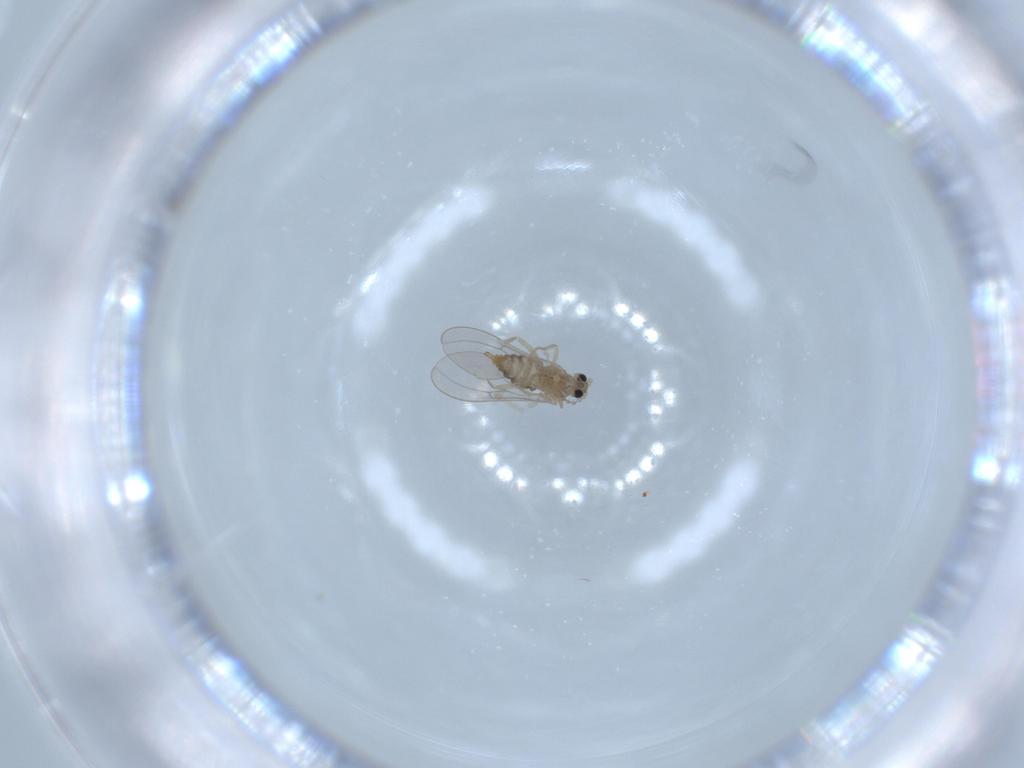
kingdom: Animalia
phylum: Arthropoda
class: Insecta
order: Diptera
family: Cecidomyiidae
